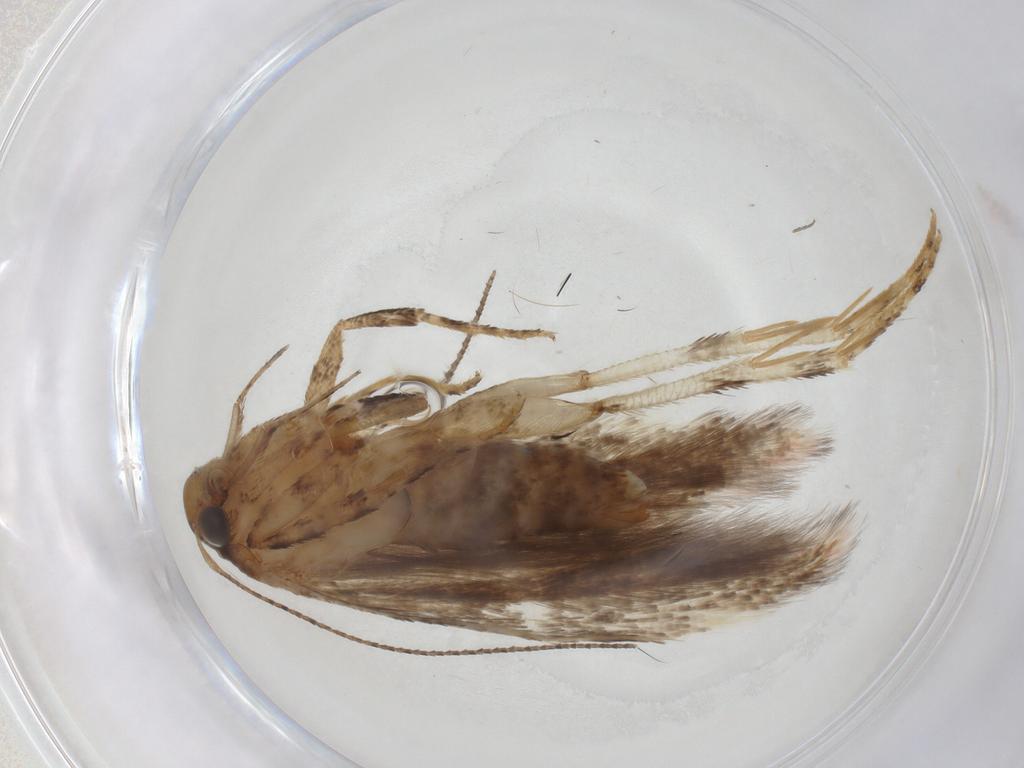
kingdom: Animalia
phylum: Arthropoda
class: Insecta
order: Lepidoptera
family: Gelechiidae
